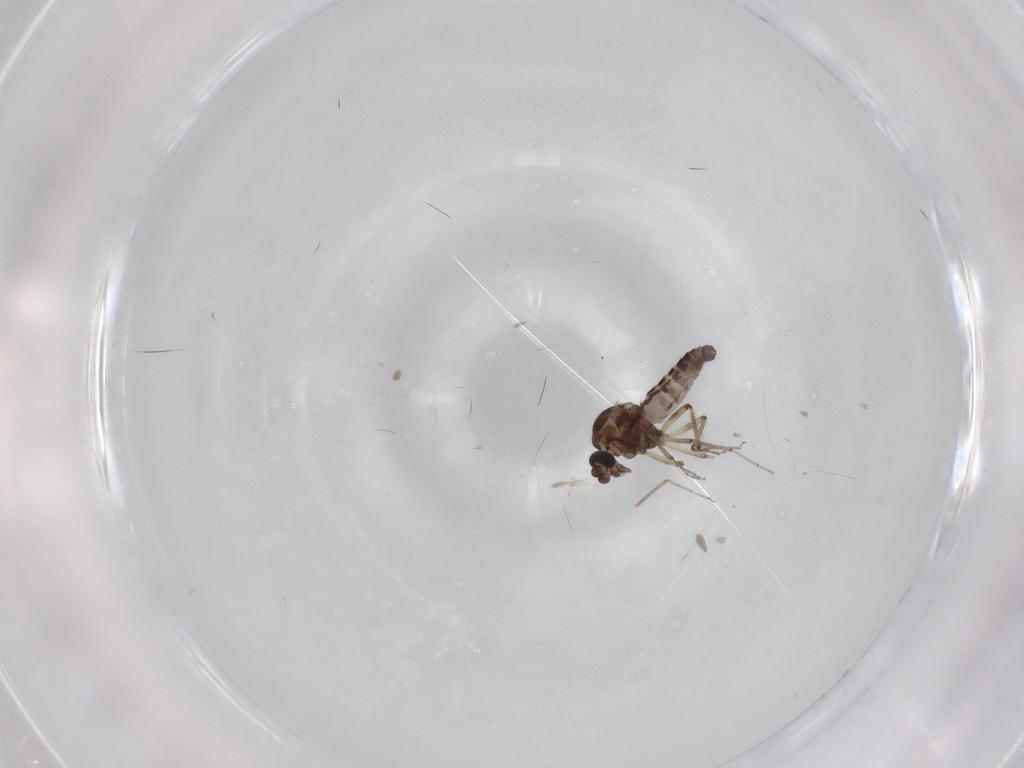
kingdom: Animalia
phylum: Arthropoda
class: Insecta
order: Diptera
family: Ceratopogonidae
